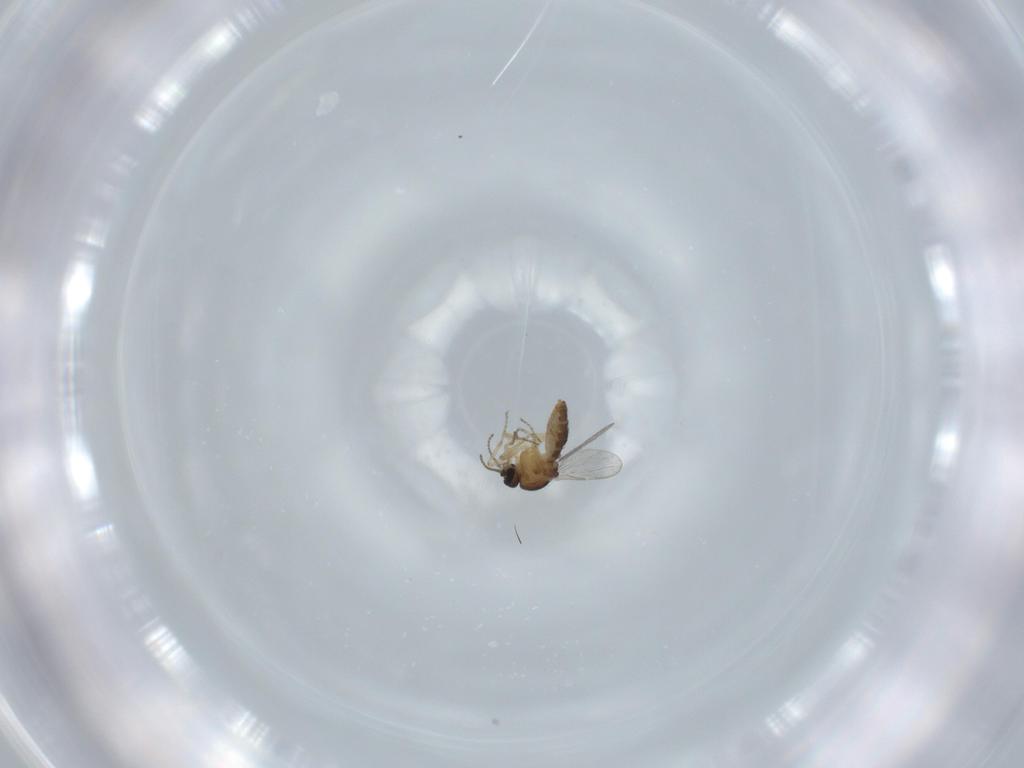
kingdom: Animalia
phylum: Arthropoda
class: Insecta
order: Diptera
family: Ceratopogonidae
